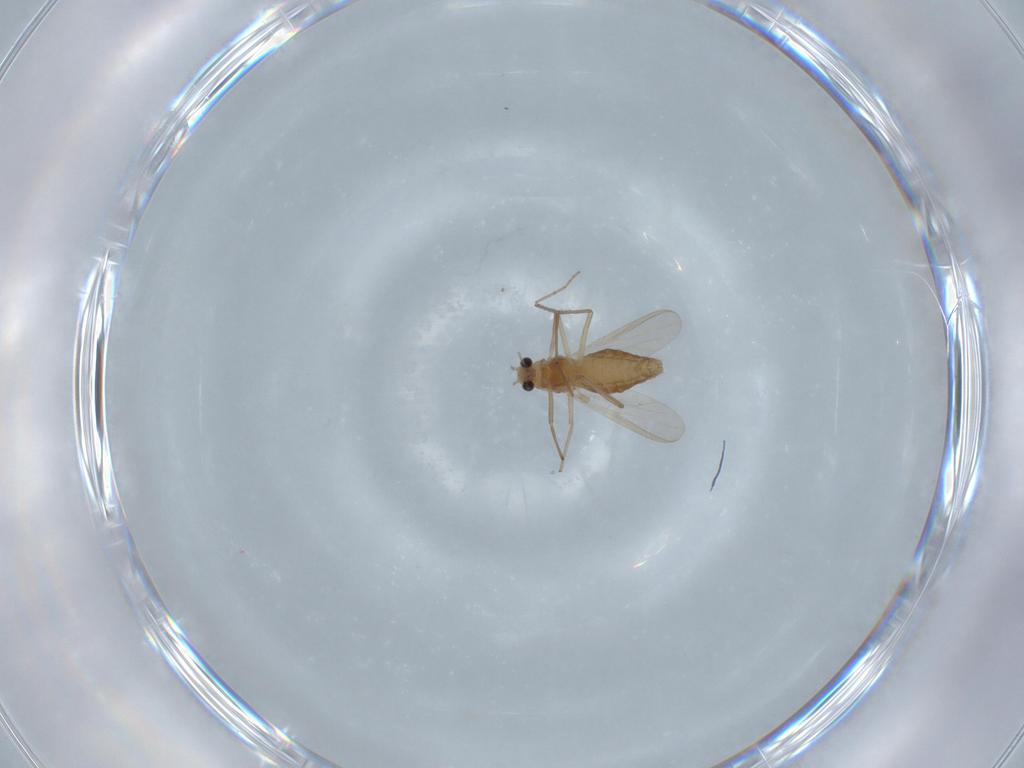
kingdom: Animalia
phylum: Arthropoda
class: Insecta
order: Diptera
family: Chironomidae
